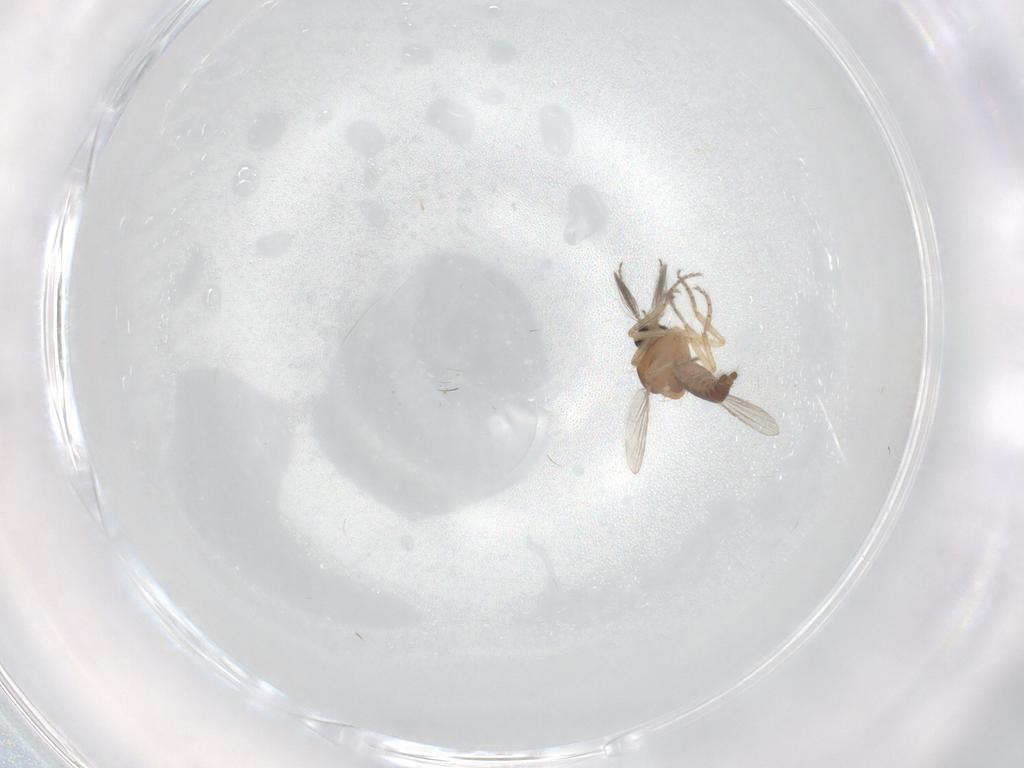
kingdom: Animalia
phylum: Arthropoda
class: Insecta
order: Diptera
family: Ceratopogonidae
